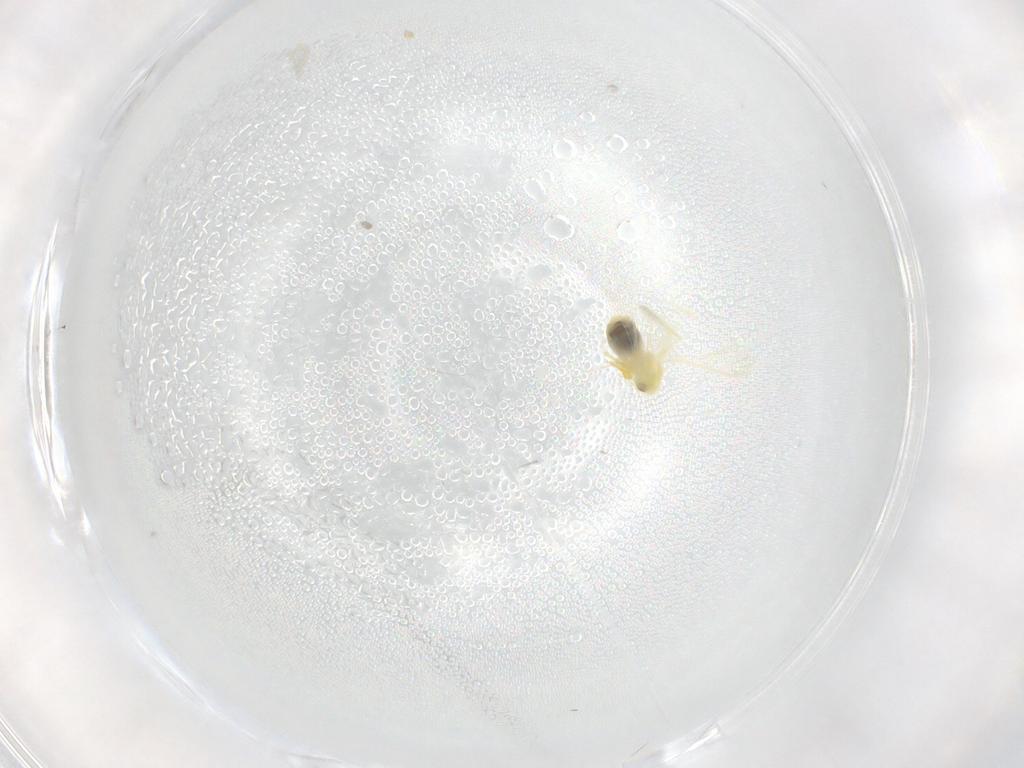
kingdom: Animalia
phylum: Arthropoda
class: Insecta
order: Hemiptera
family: Aleyrodidae
